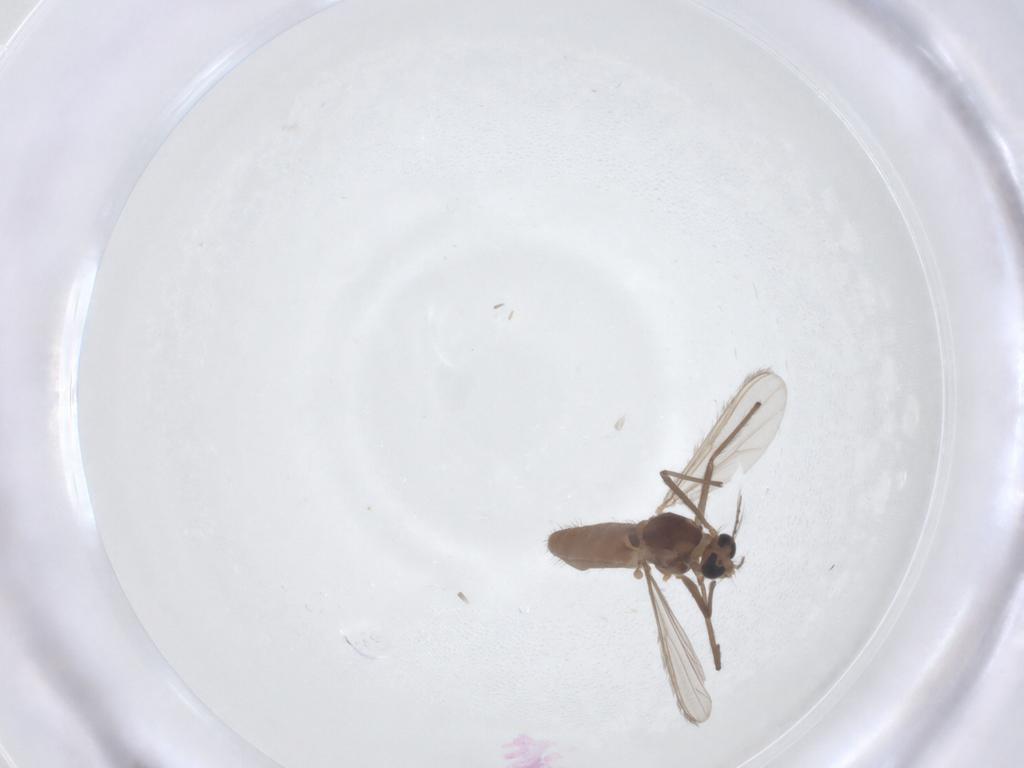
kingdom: Animalia
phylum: Arthropoda
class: Insecta
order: Diptera
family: Chironomidae
